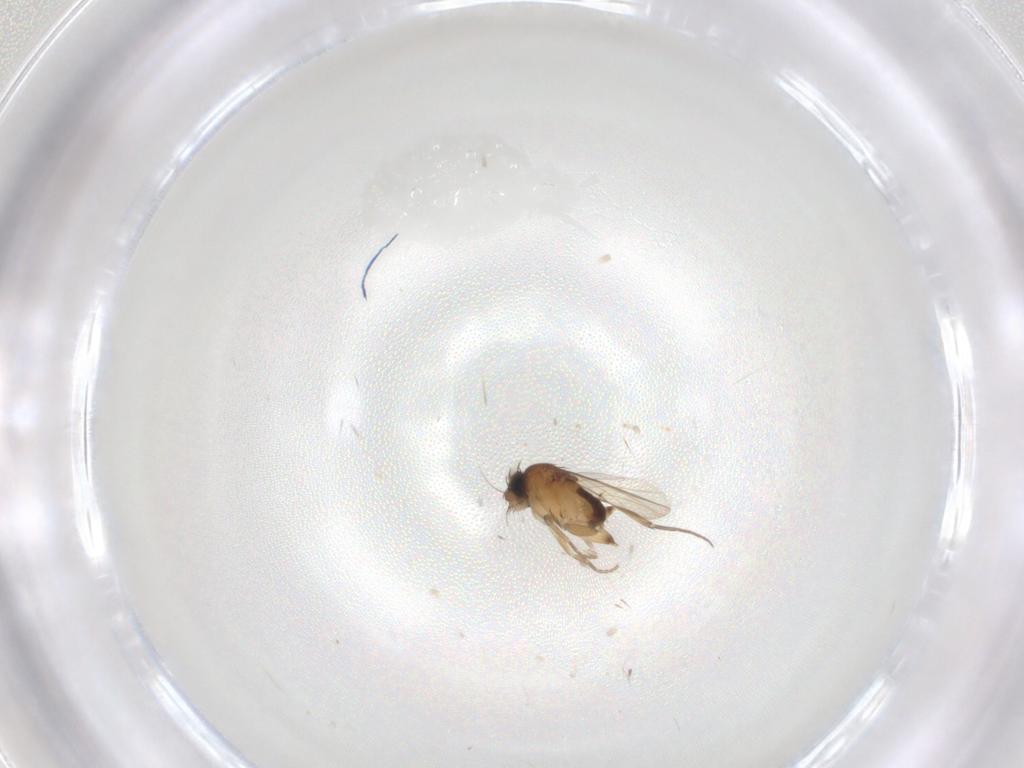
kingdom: Animalia
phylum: Arthropoda
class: Insecta
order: Diptera
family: Phoridae
